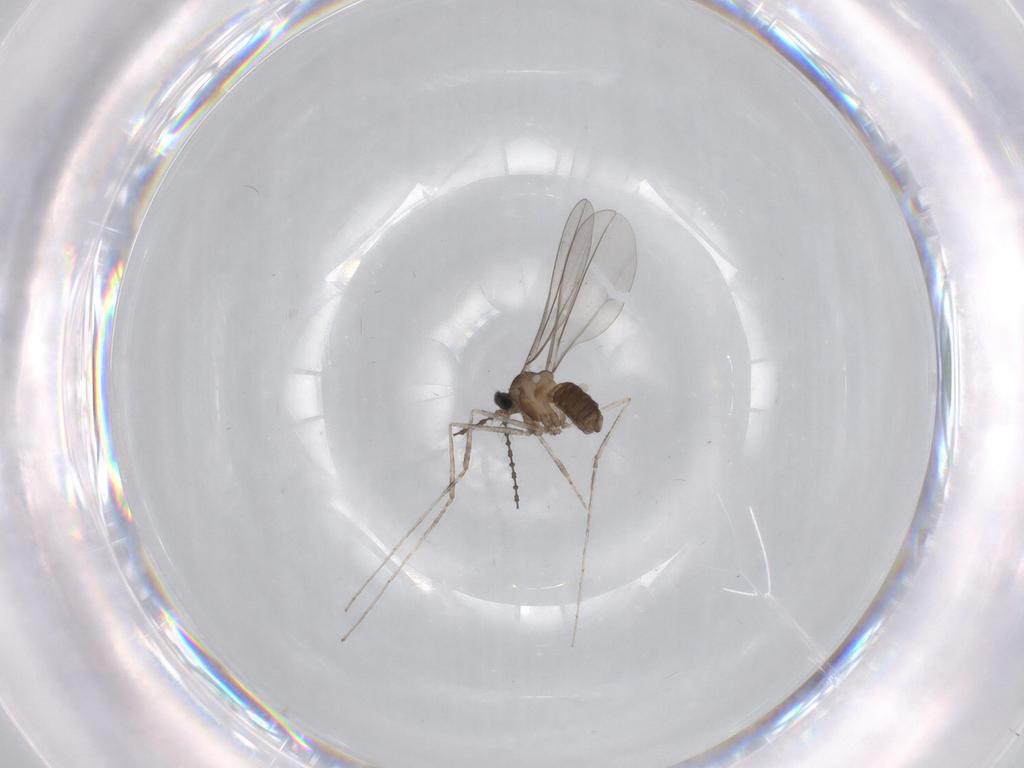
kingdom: Animalia
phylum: Arthropoda
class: Insecta
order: Diptera
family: Cecidomyiidae
